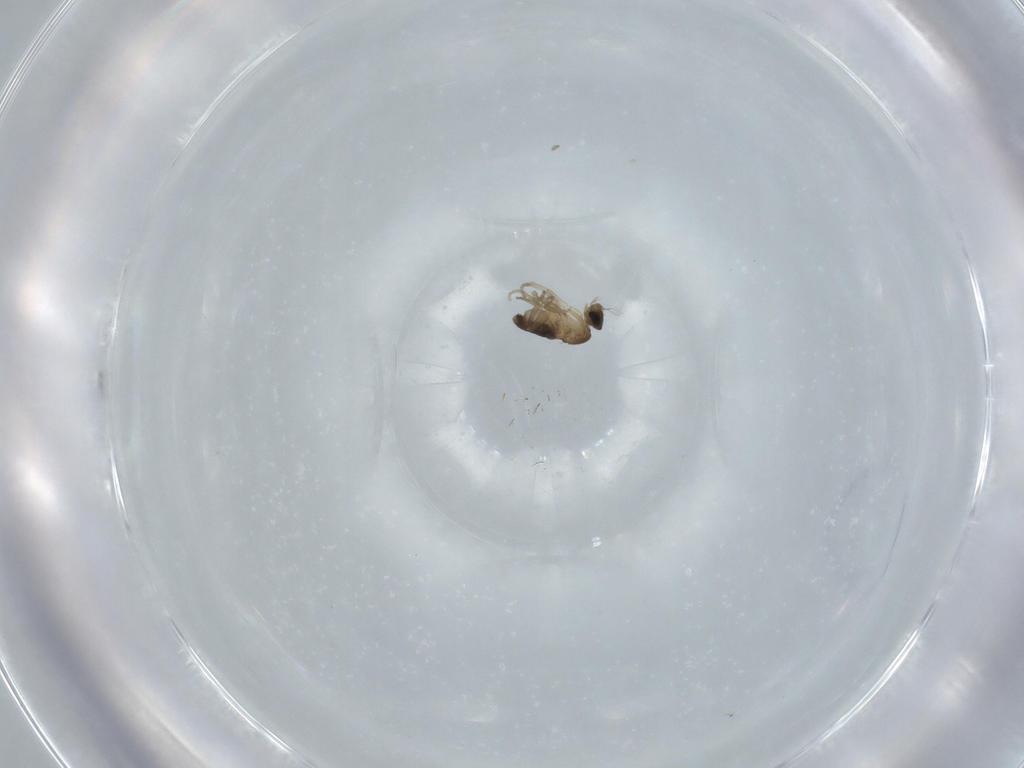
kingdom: Animalia
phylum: Arthropoda
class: Insecta
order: Diptera
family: Phoridae
